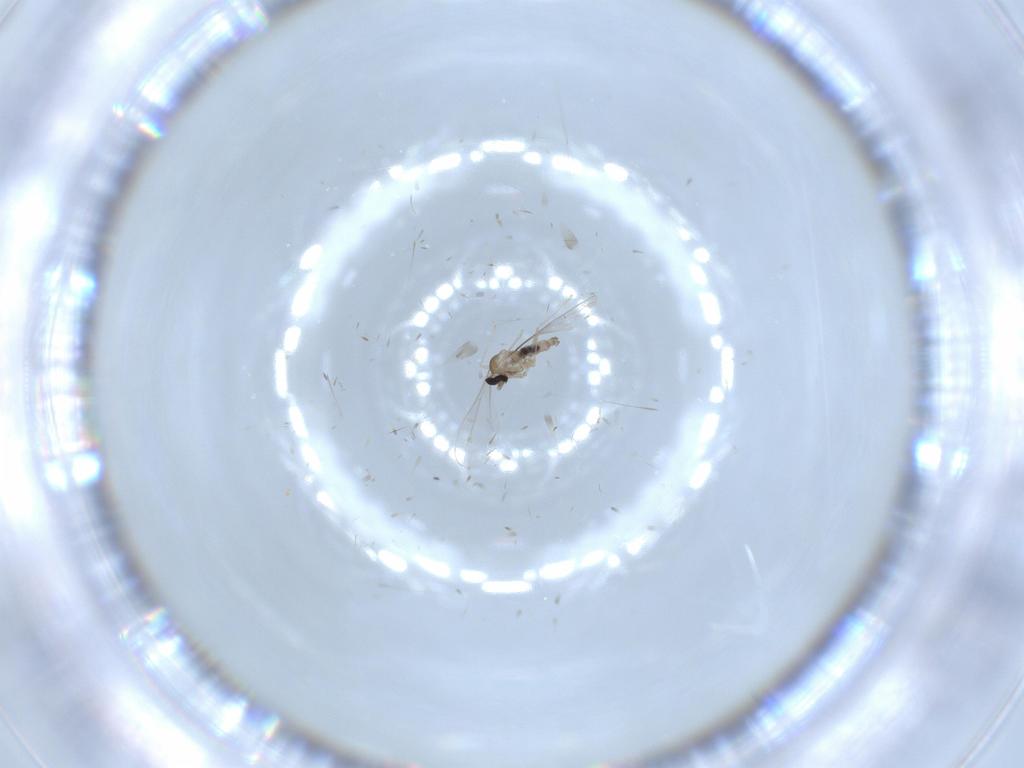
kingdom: Animalia
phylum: Arthropoda
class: Insecta
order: Diptera
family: Cecidomyiidae
